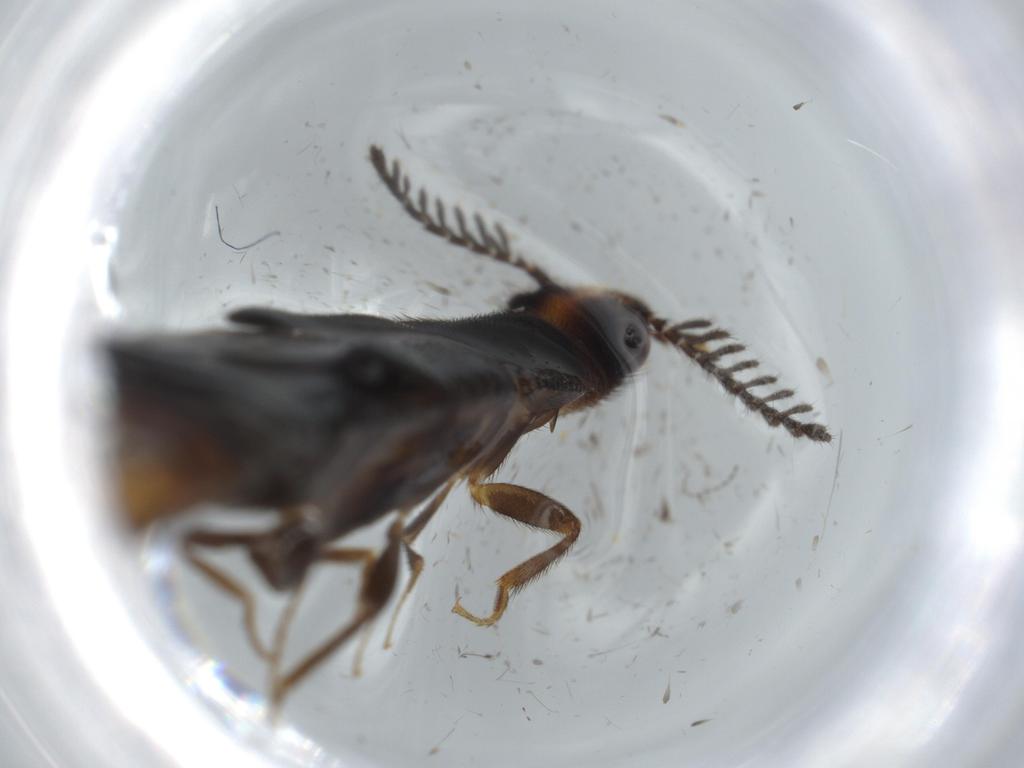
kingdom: Animalia
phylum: Arthropoda
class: Insecta
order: Coleoptera
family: Phengodidae
